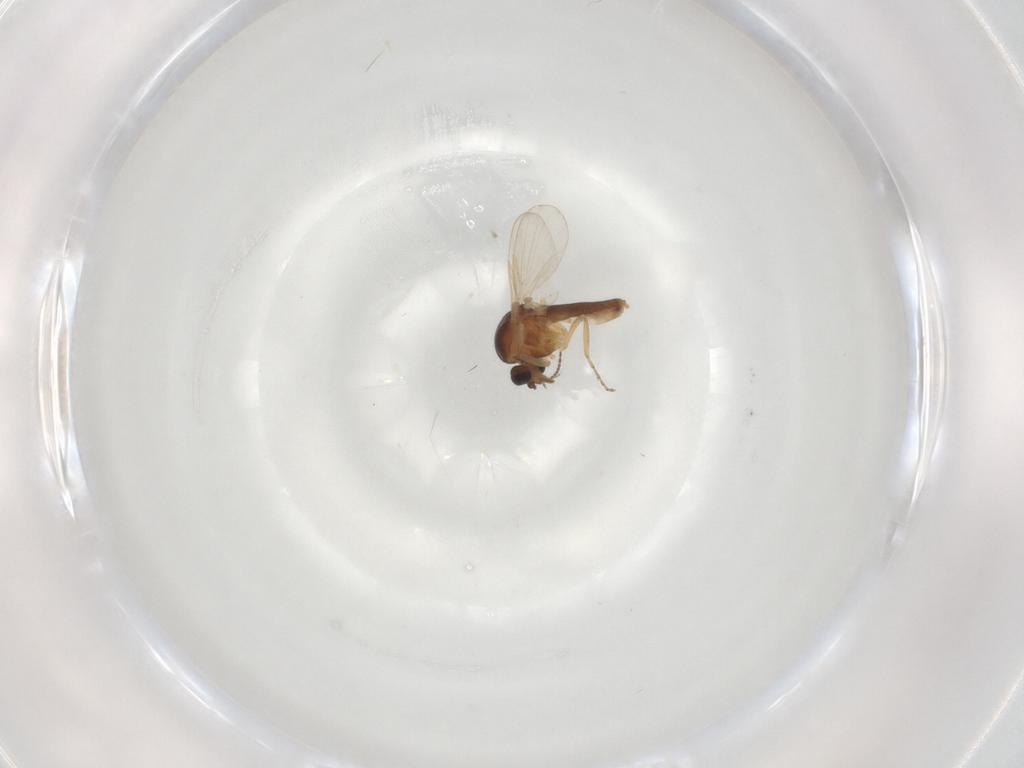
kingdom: Animalia
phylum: Arthropoda
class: Insecta
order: Diptera
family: Ceratopogonidae
